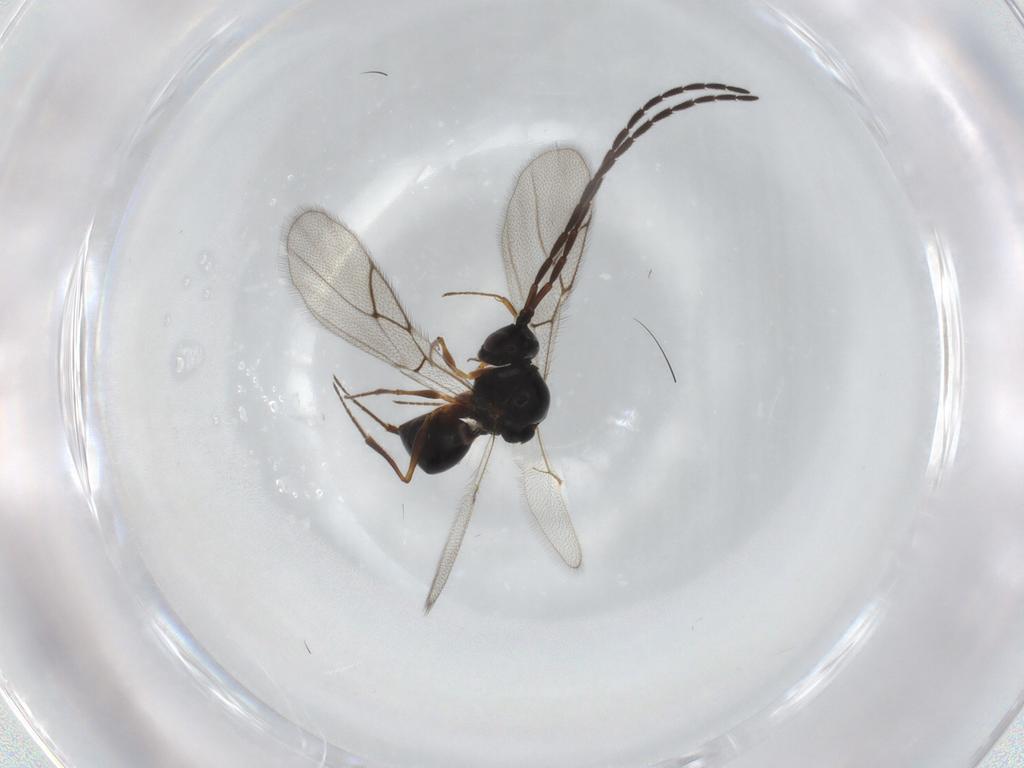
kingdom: Animalia
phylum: Arthropoda
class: Insecta
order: Hymenoptera
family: Figitidae
